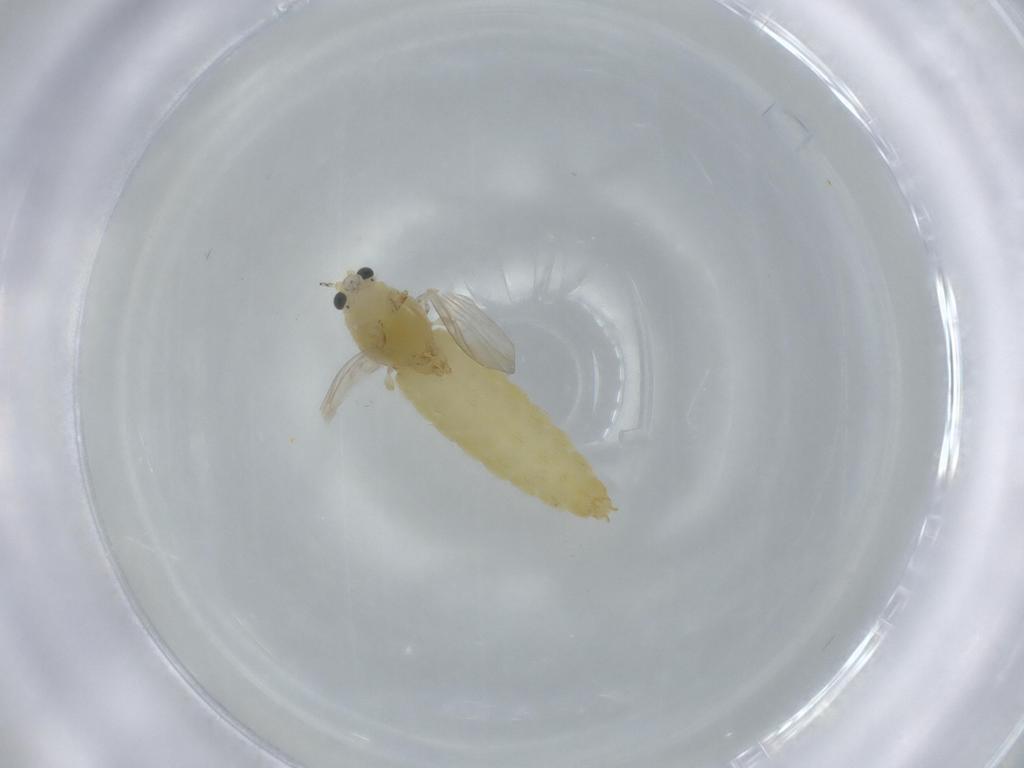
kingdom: Animalia
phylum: Arthropoda
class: Insecta
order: Diptera
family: Chironomidae
